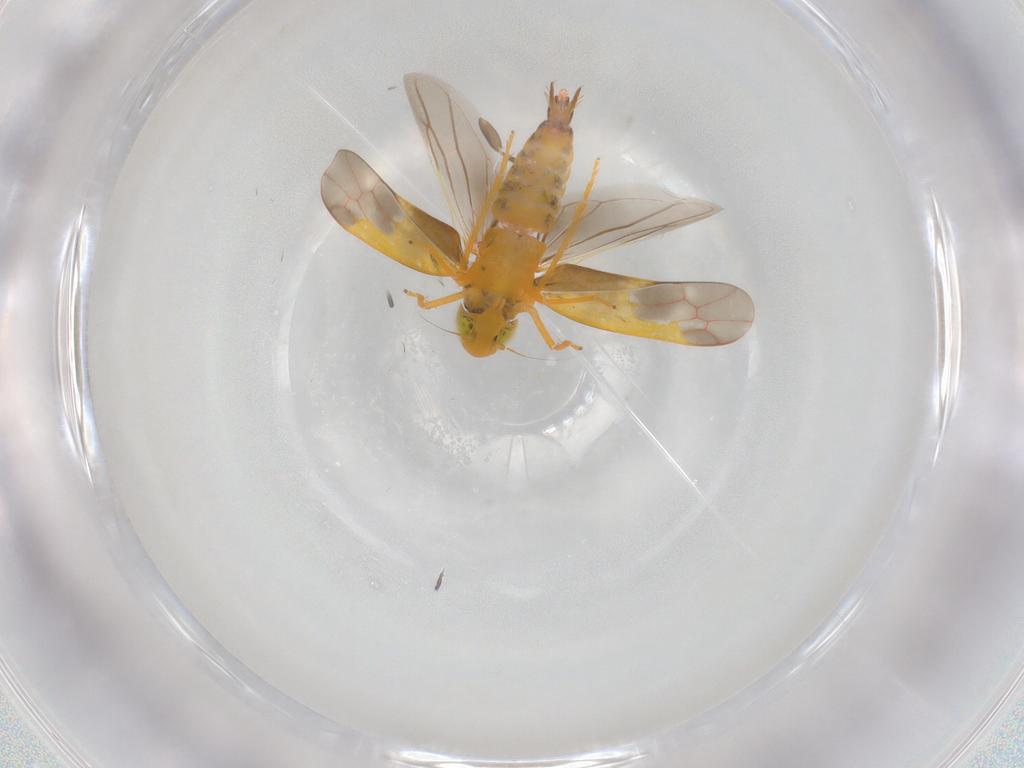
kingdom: Animalia
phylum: Arthropoda
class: Insecta
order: Hemiptera
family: Cicadellidae
